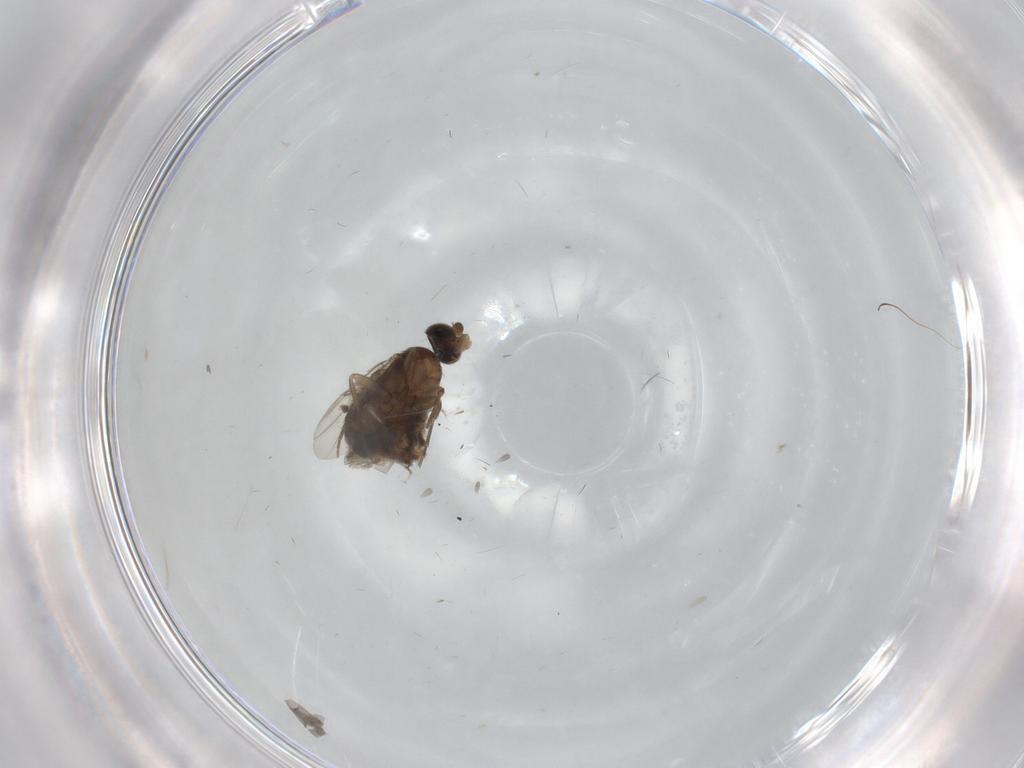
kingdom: Animalia
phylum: Arthropoda
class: Insecta
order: Diptera
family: Phoridae
